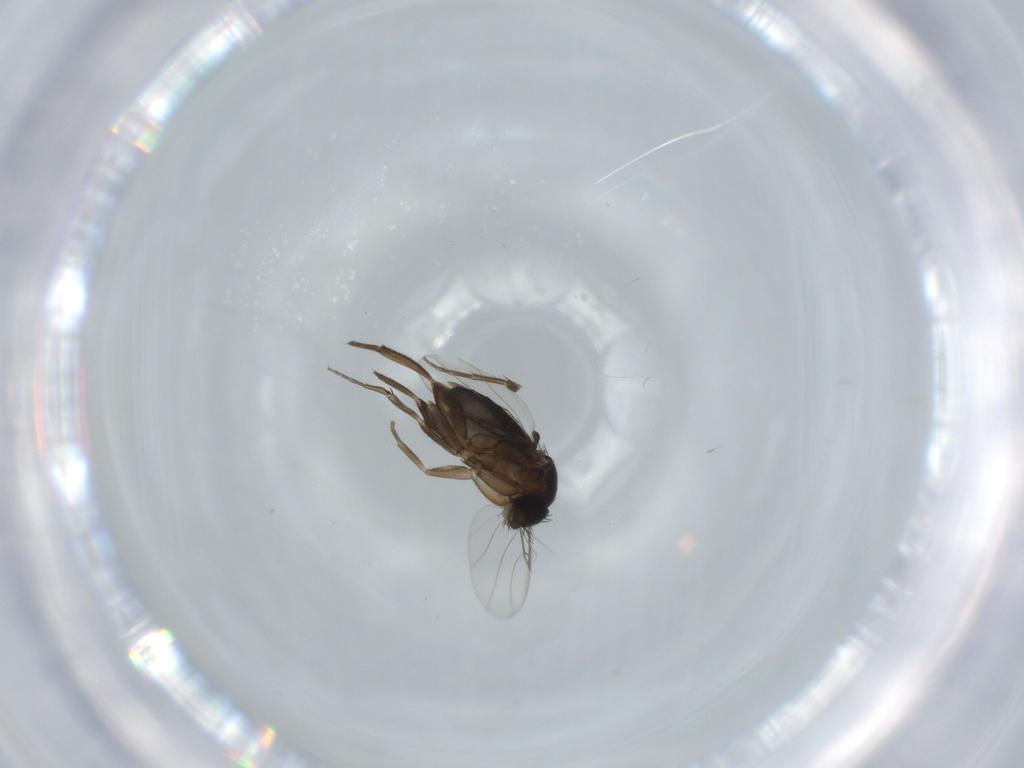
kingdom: Animalia
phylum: Arthropoda
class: Insecta
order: Diptera
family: Phoridae
